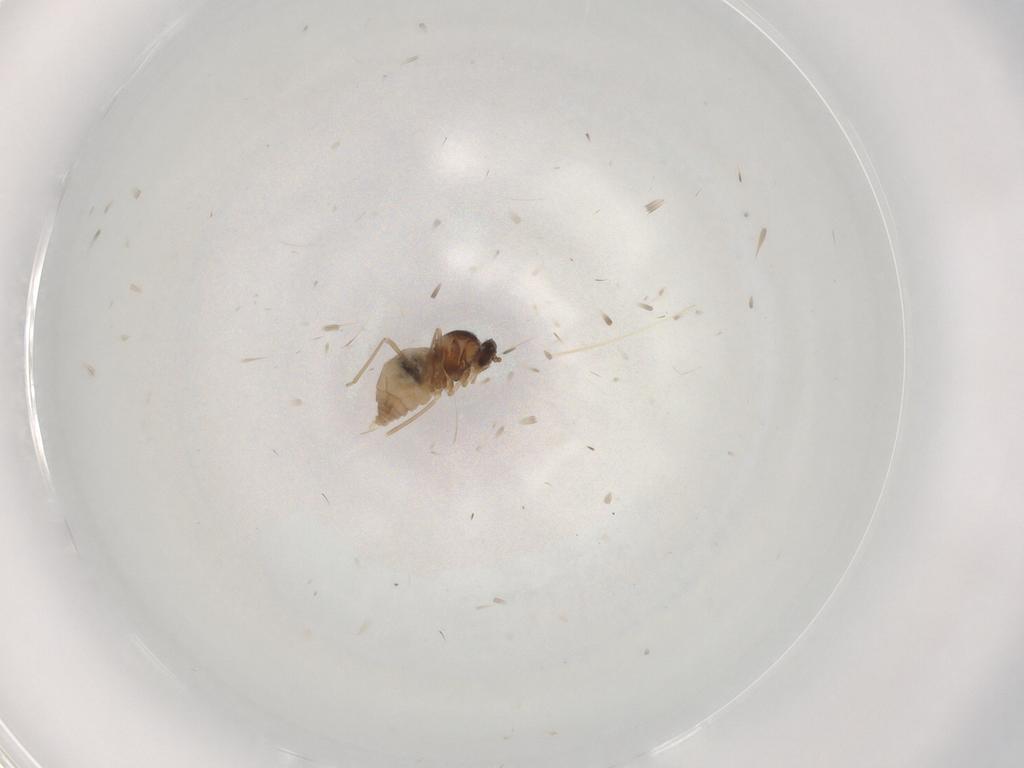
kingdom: Animalia
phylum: Arthropoda
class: Insecta
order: Diptera
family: Cecidomyiidae
